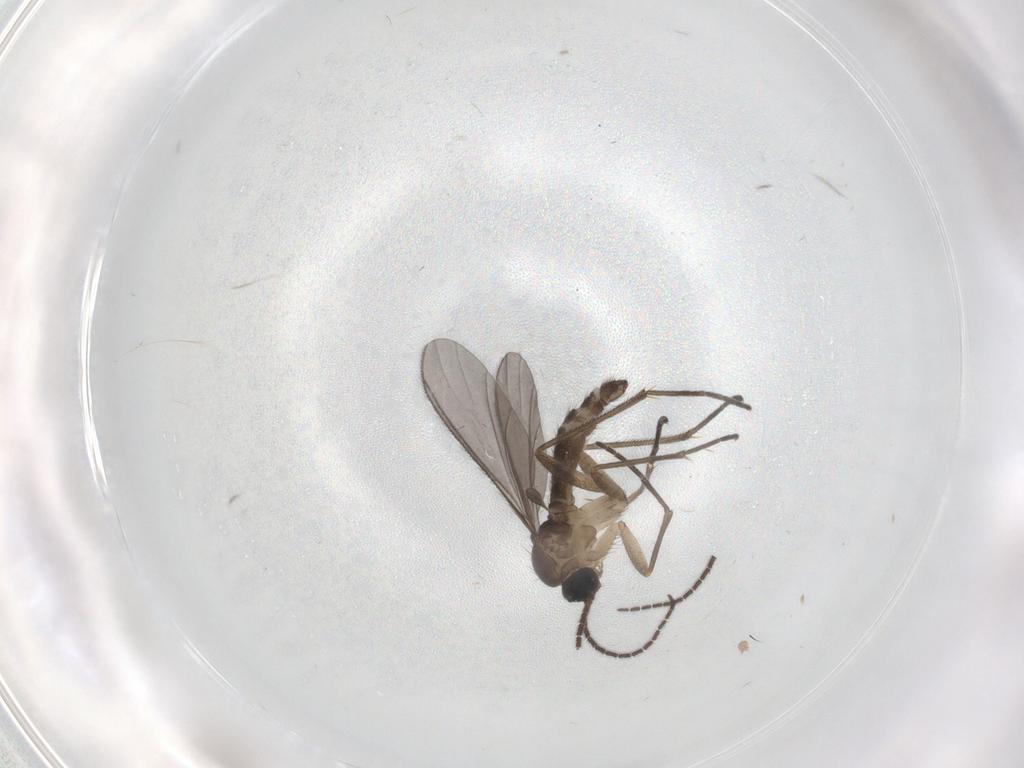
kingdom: Animalia
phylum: Arthropoda
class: Insecta
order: Diptera
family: Sciaridae
